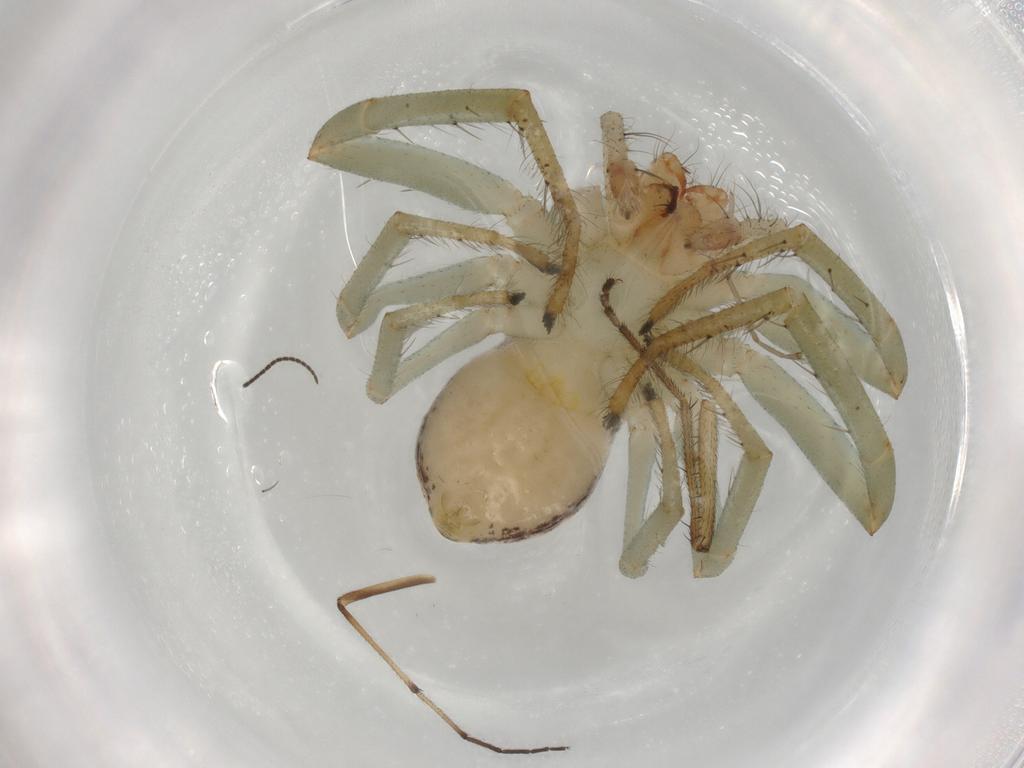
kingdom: Animalia
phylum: Arthropoda
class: Arachnida
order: Araneae
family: Philodromidae
